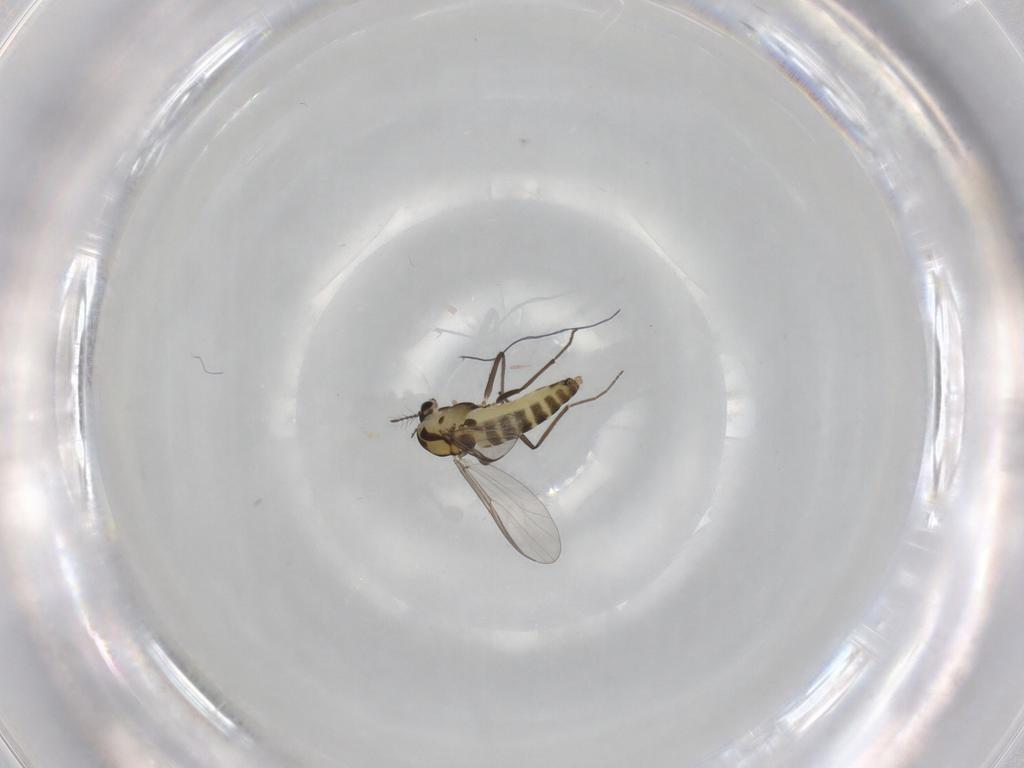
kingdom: Animalia
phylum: Arthropoda
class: Insecta
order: Diptera
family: Chironomidae
